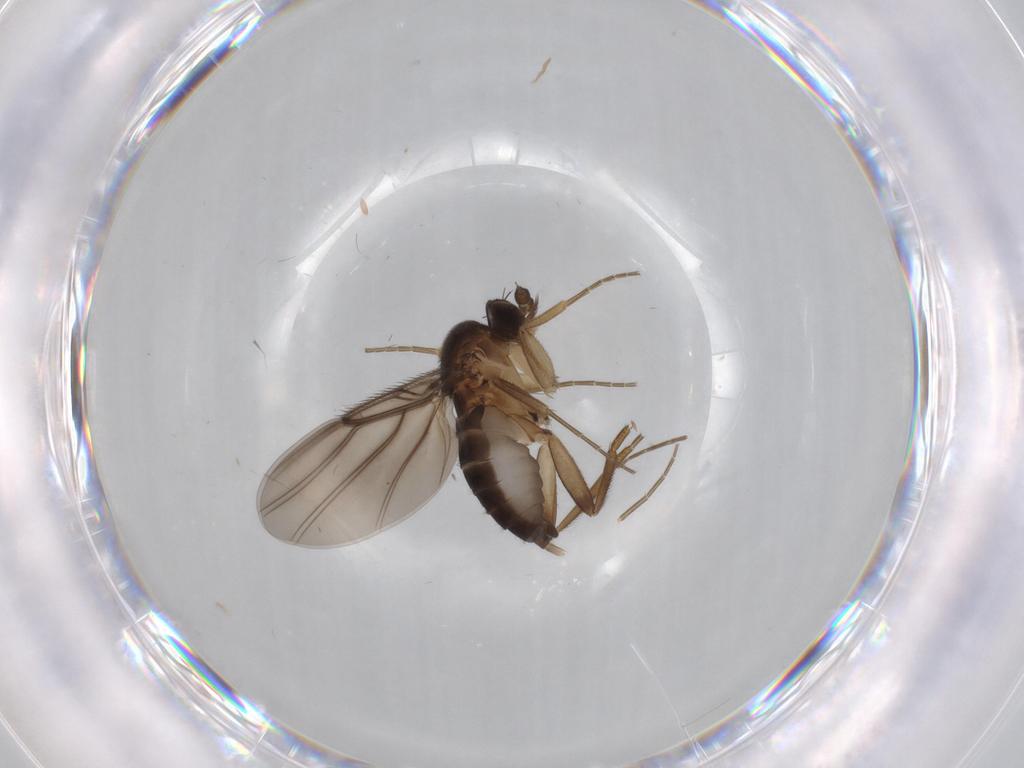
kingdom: Animalia
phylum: Arthropoda
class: Insecta
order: Diptera
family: Phoridae
